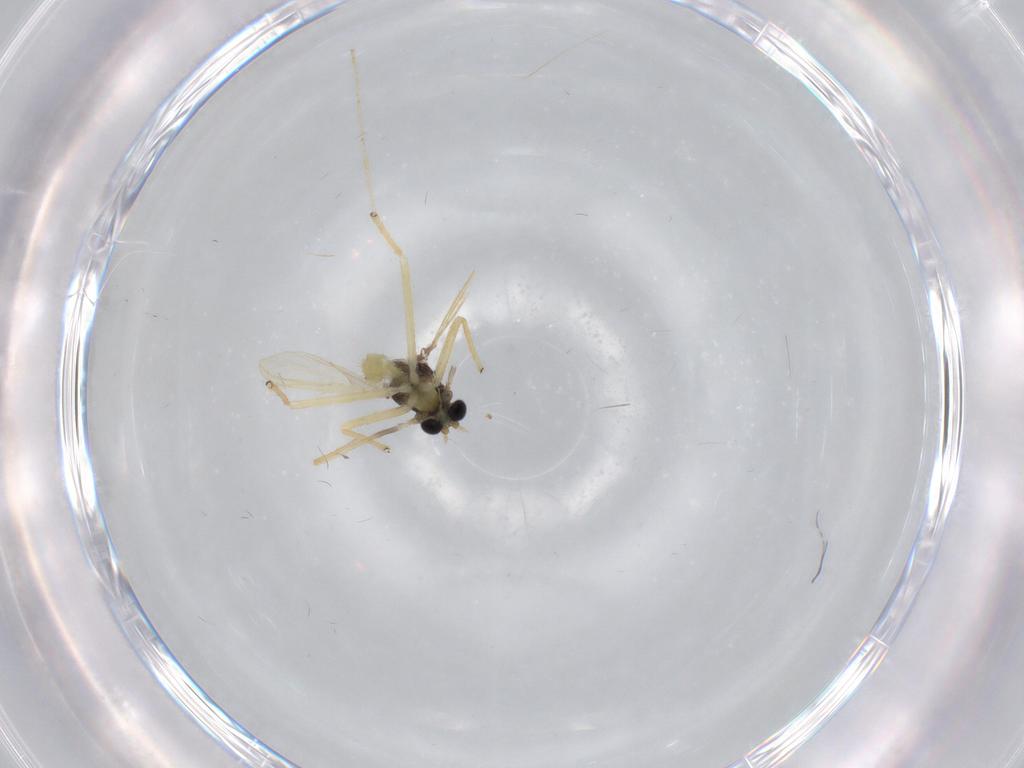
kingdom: Animalia
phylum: Arthropoda
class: Insecta
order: Diptera
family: Chironomidae
